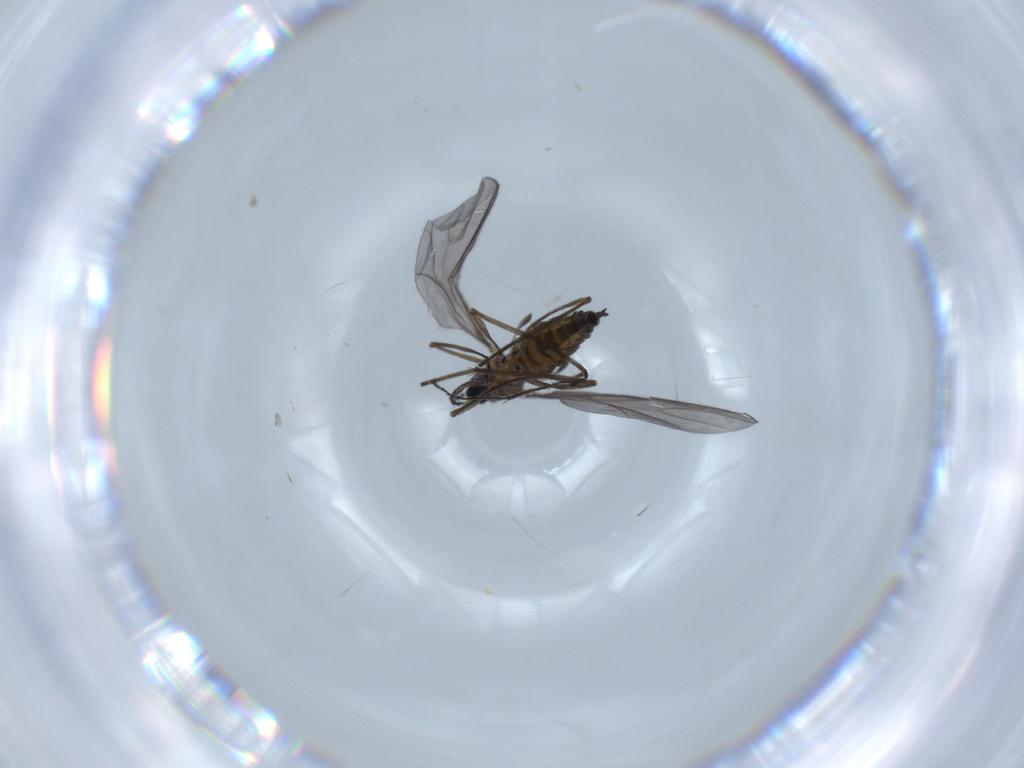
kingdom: Animalia
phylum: Arthropoda
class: Insecta
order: Diptera
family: Sciaridae
